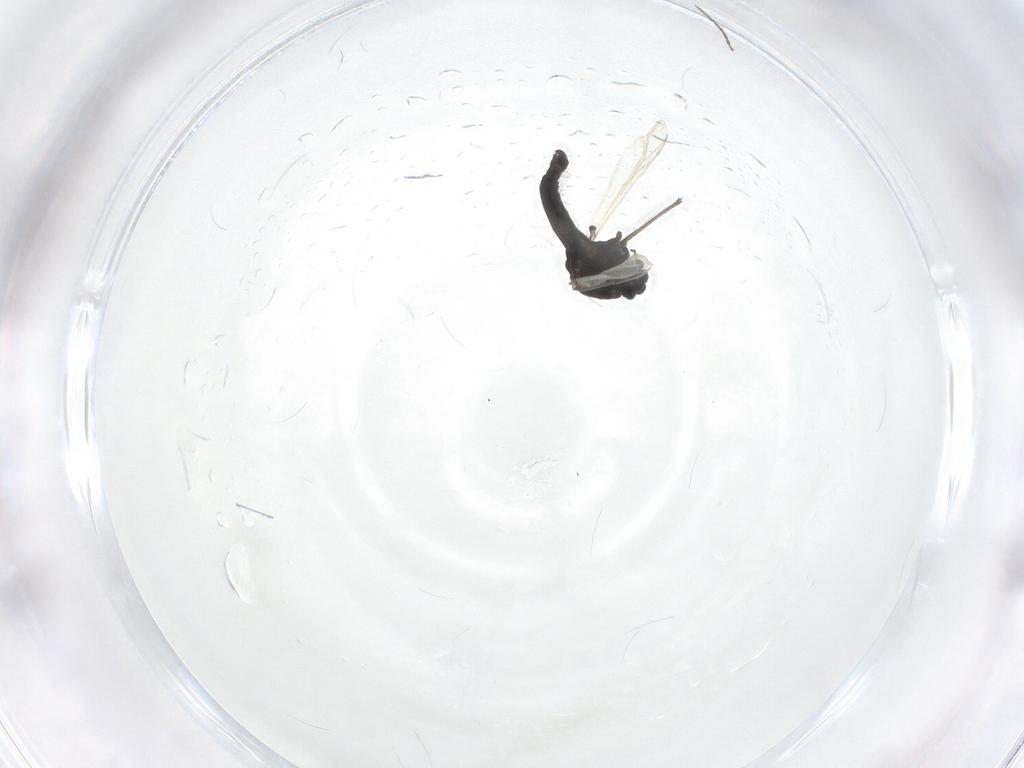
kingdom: Animalia
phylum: Arthropoda
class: Insecta
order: Diptera
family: Chironomidae
